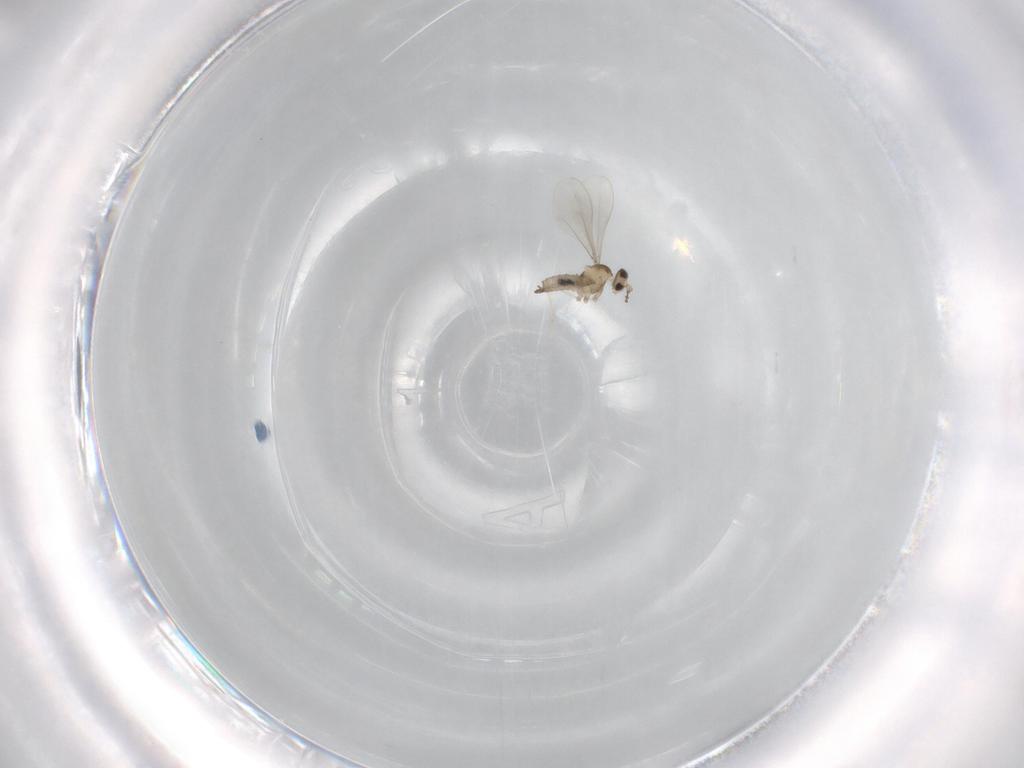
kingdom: Animalia
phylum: Arthropoda
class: Insecta
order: Diptera
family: Cecidomyiidae
